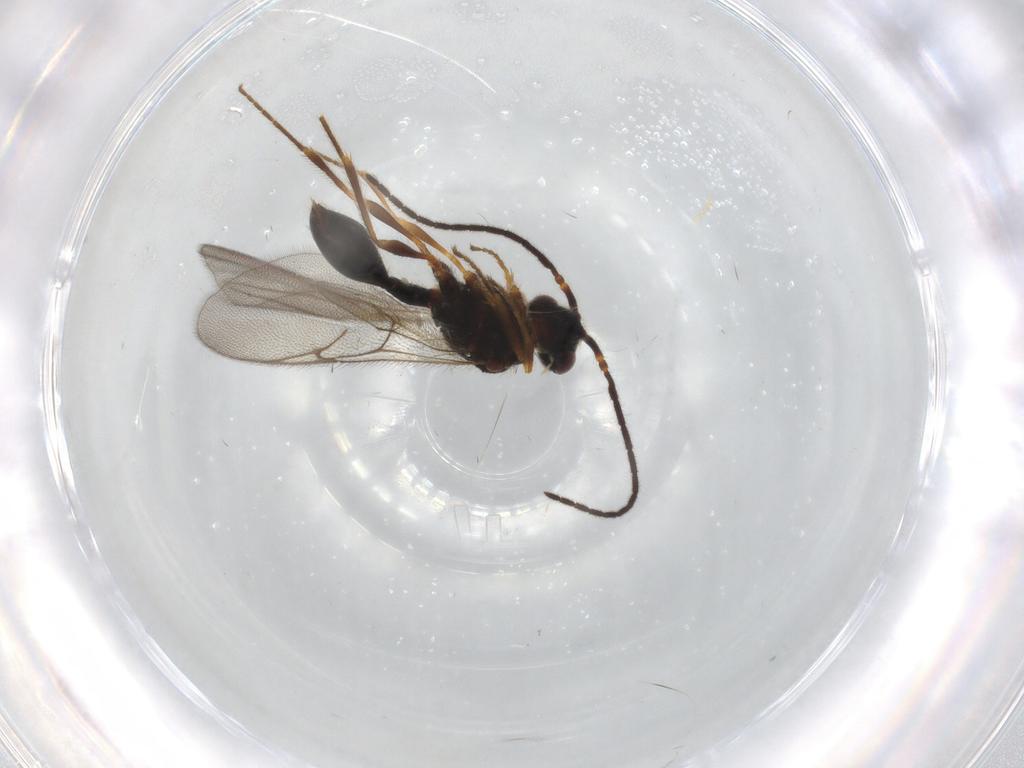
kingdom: Animalia
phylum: Arthropoda
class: Insecta
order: Hymenoptera
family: Diapriidae
